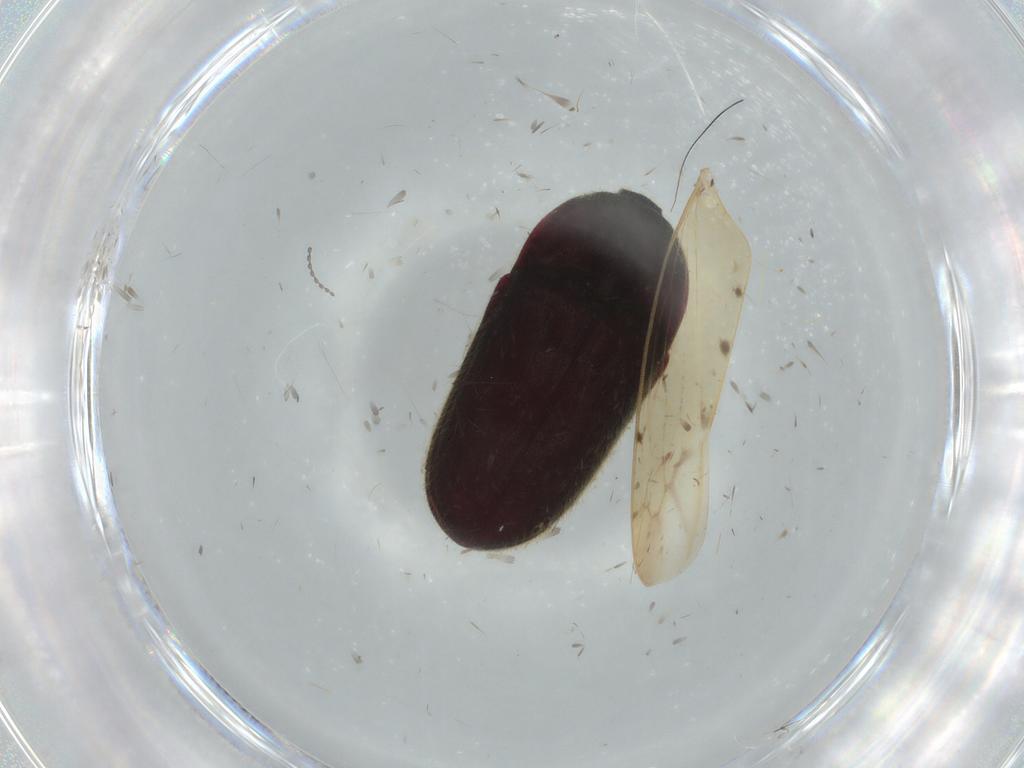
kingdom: Animalia
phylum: Arthropoda
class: Insecta
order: Coleoptera
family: Throscidae
